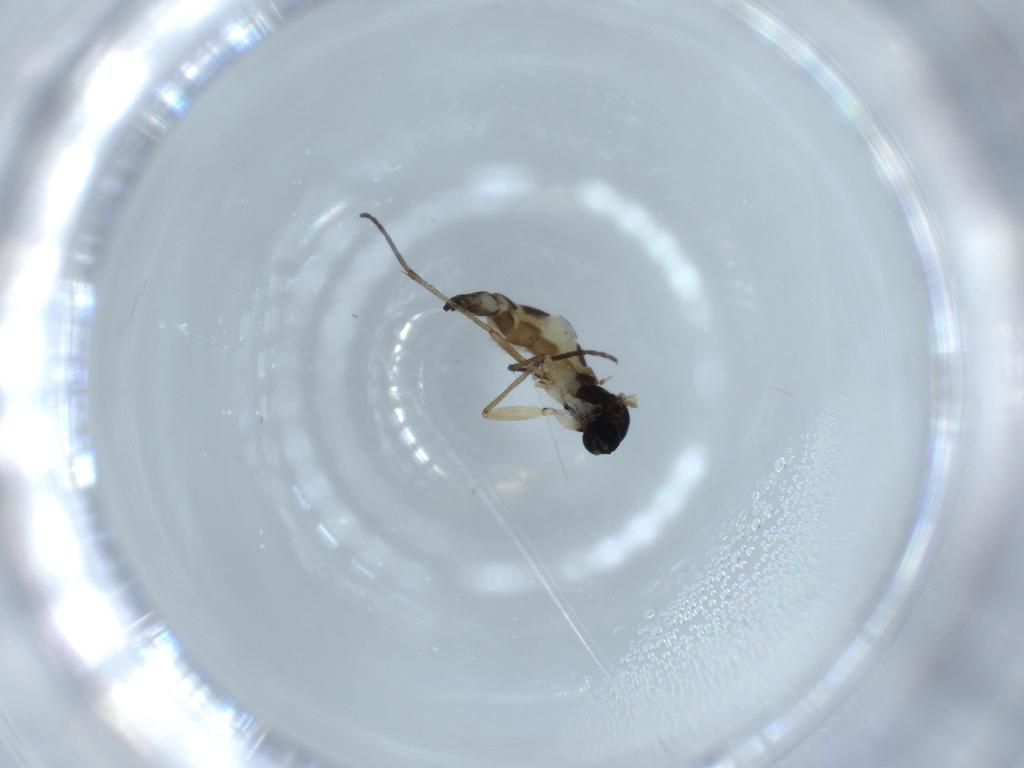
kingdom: Animalia
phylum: Arthropoda
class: Insecta
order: Diptera
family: Sciaridae
